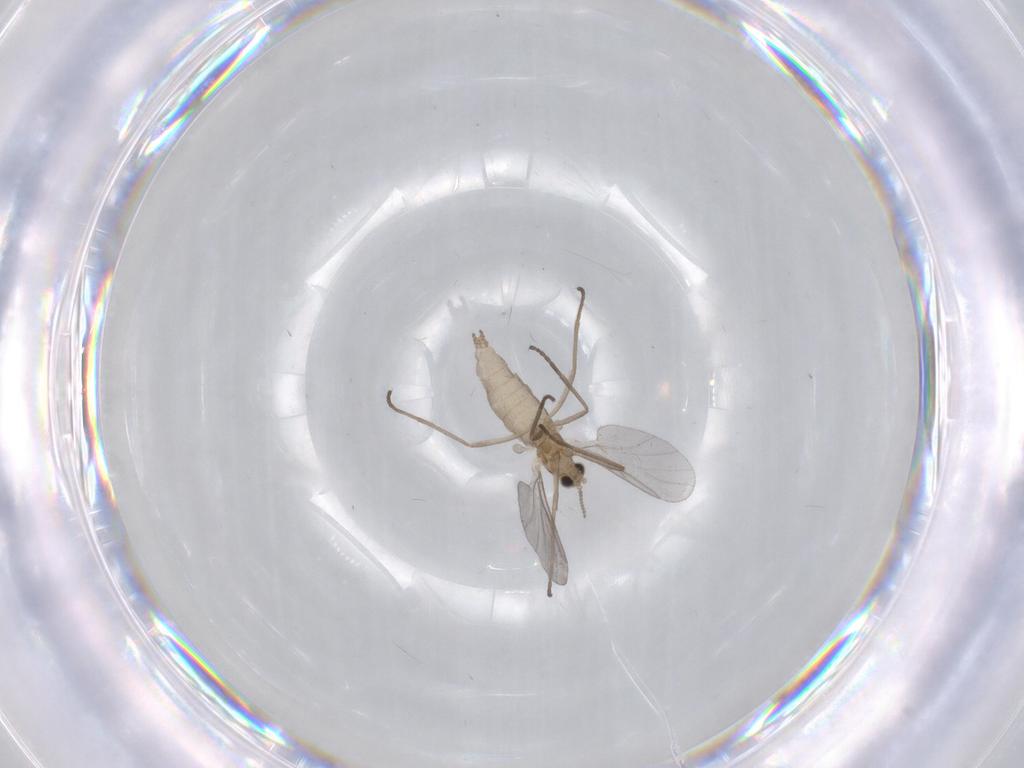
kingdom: Animalia
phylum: Arthropoda
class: Insecta
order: Diptera
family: Cecidomyiidae
